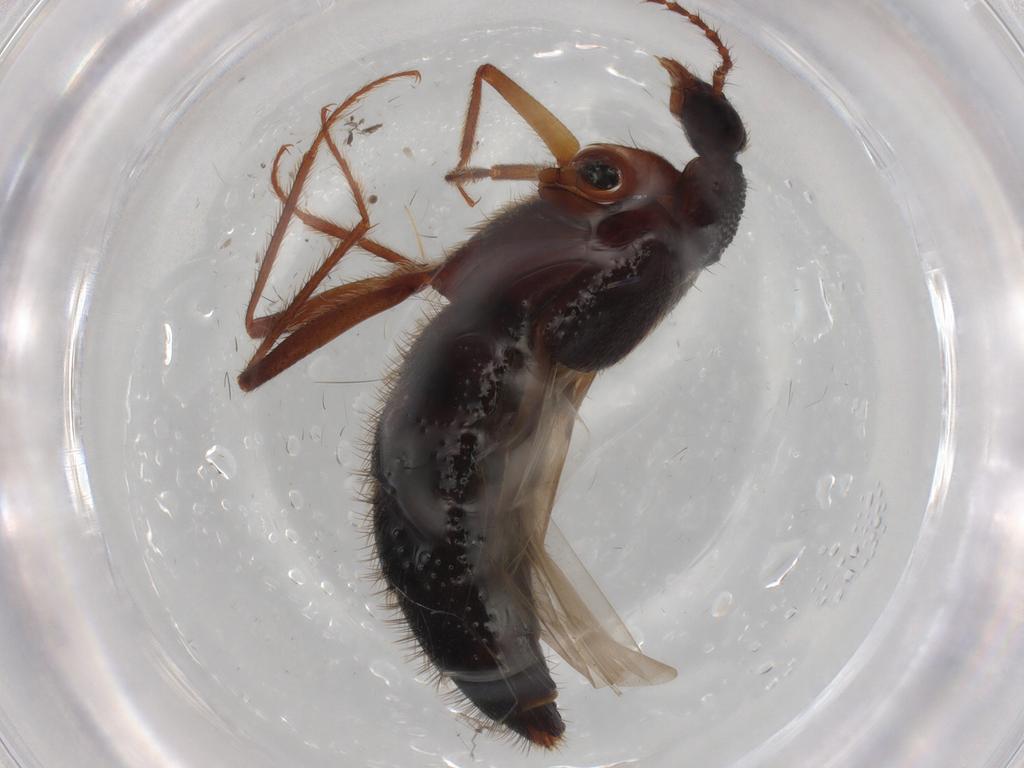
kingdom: Animalia
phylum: Arthropoda
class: Insecta
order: Coleoptera
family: Staphylinidae
